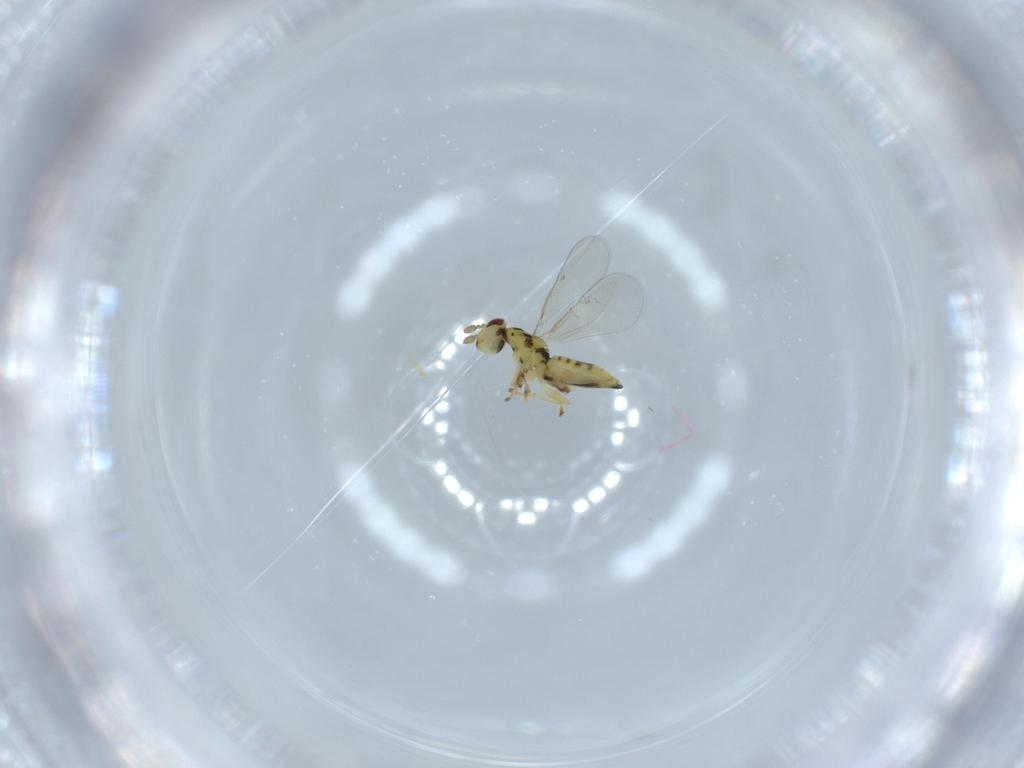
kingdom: Animalia
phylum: Arthropoda
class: Insecta
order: Hymenoptera
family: Eulophidae
